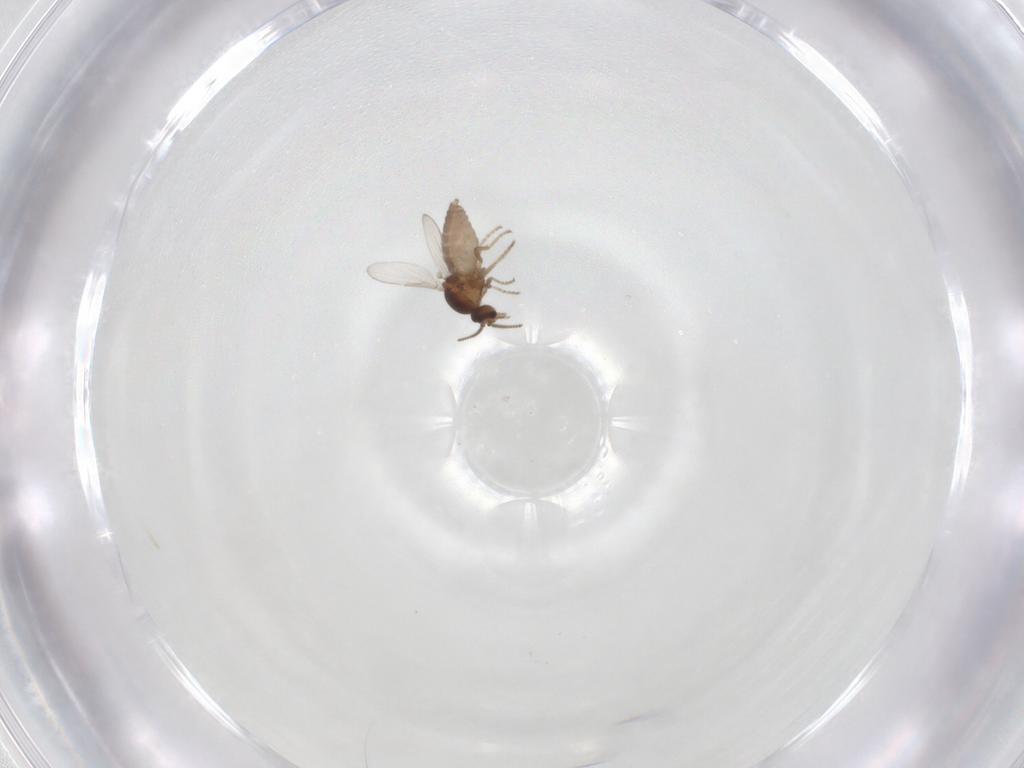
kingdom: Animalia
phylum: Arthropoda
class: Insecta
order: Diptera
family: Ceratopogonidae
